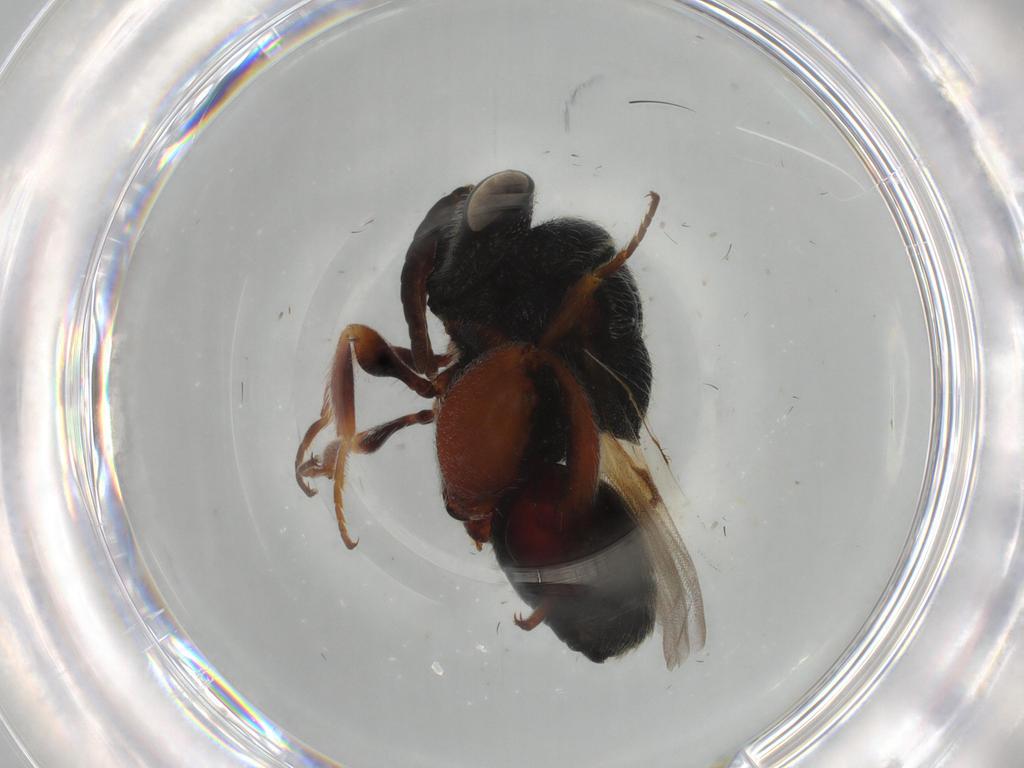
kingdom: Animalia
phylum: Arthropoda
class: Insecta
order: Hymenoptera
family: Chalcididae
